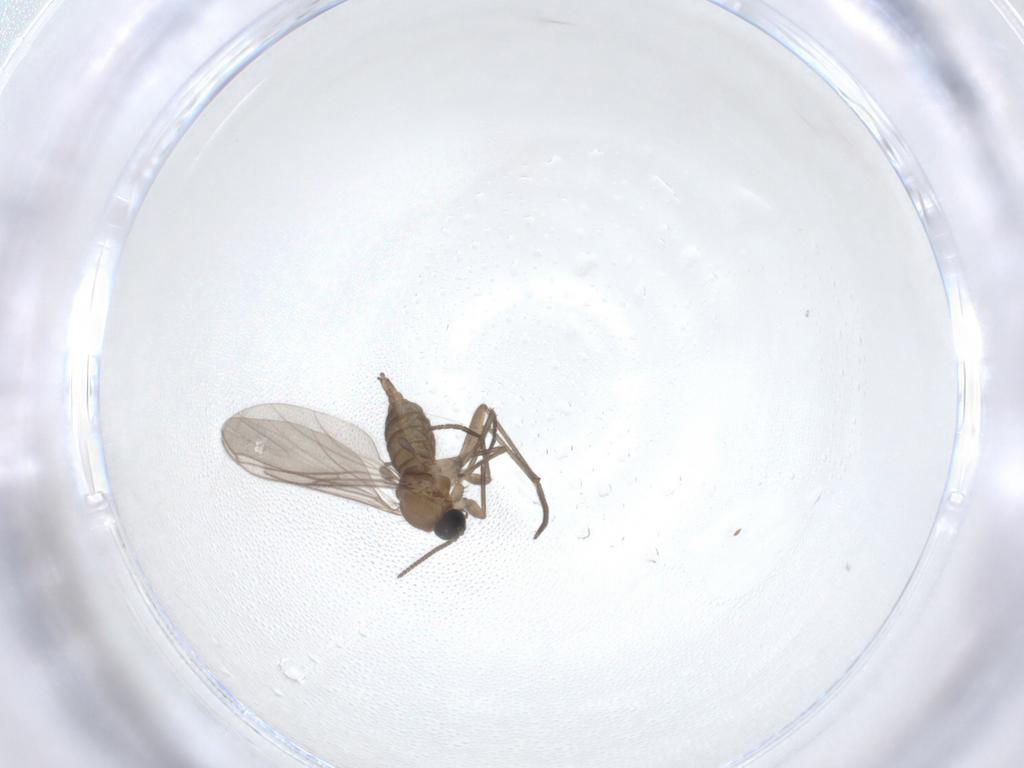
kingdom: Animalia
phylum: Arthropoda
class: Insecta
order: Diptera
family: Sciaridae
